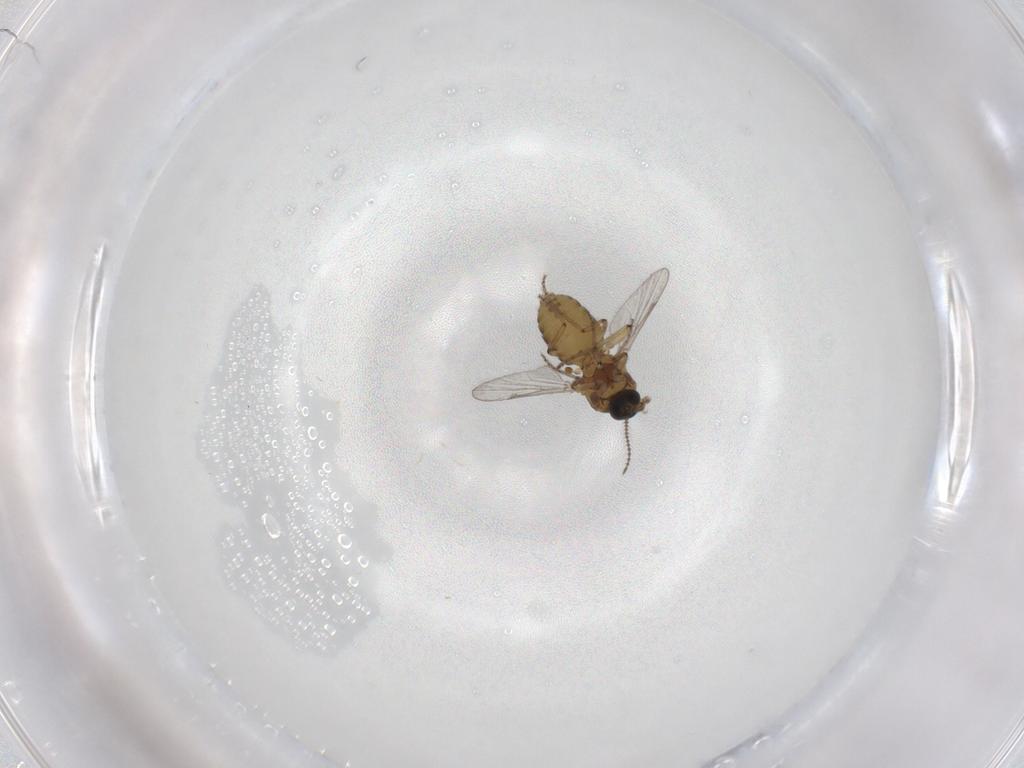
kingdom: Animalia
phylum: Arthropoda
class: Insecta
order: Diptera
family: Ceratopogonidae
